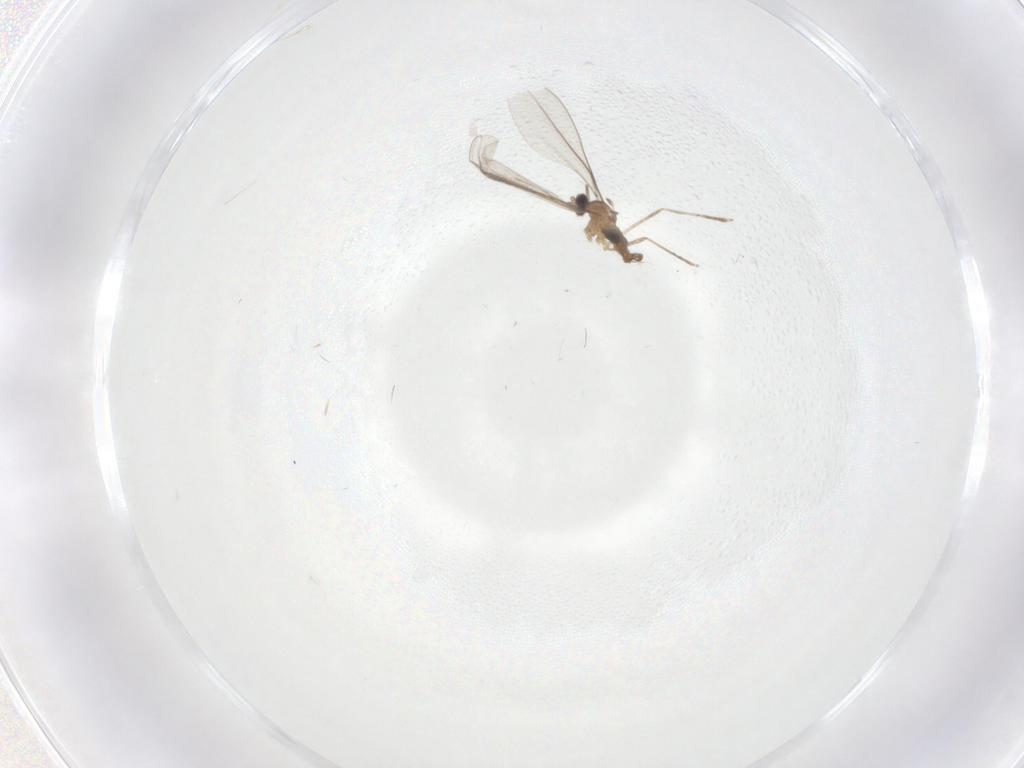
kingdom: Animalia
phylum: Arthropoda
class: Insecta
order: Diptera
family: Cecidomyiidae
